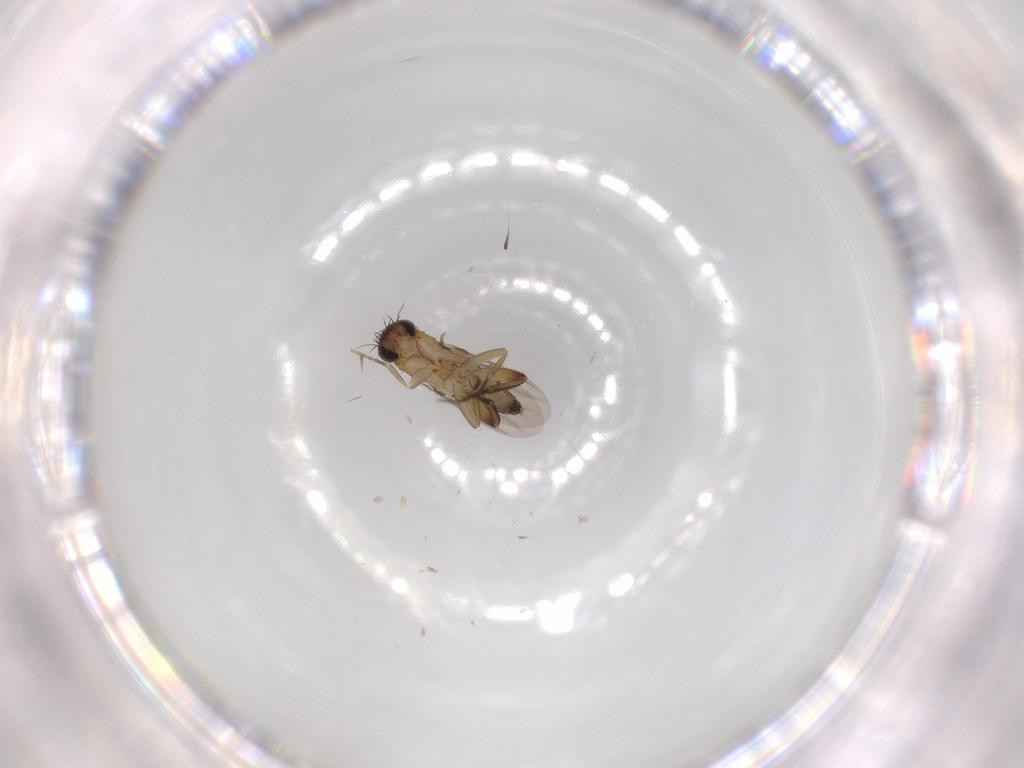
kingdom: Animalia
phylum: Arthropoda
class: Insecta
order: Diptera
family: Phoridae
